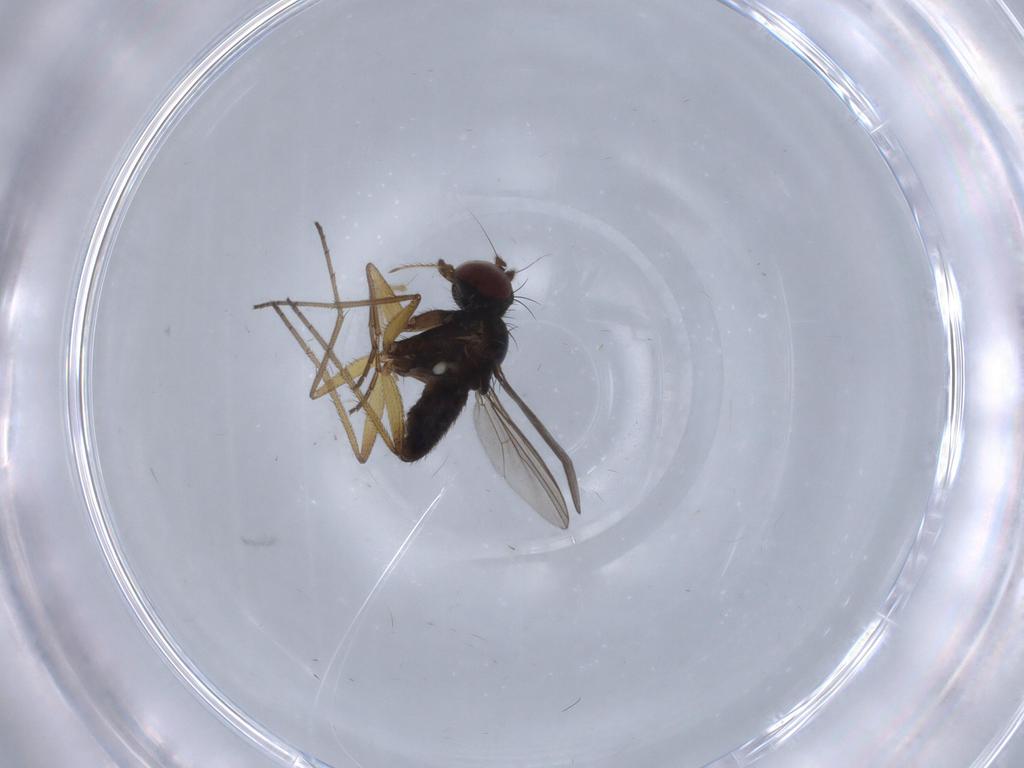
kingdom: Animalia
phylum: Arthropoda
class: Insecta
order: Diptera
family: Dolichopodidae
